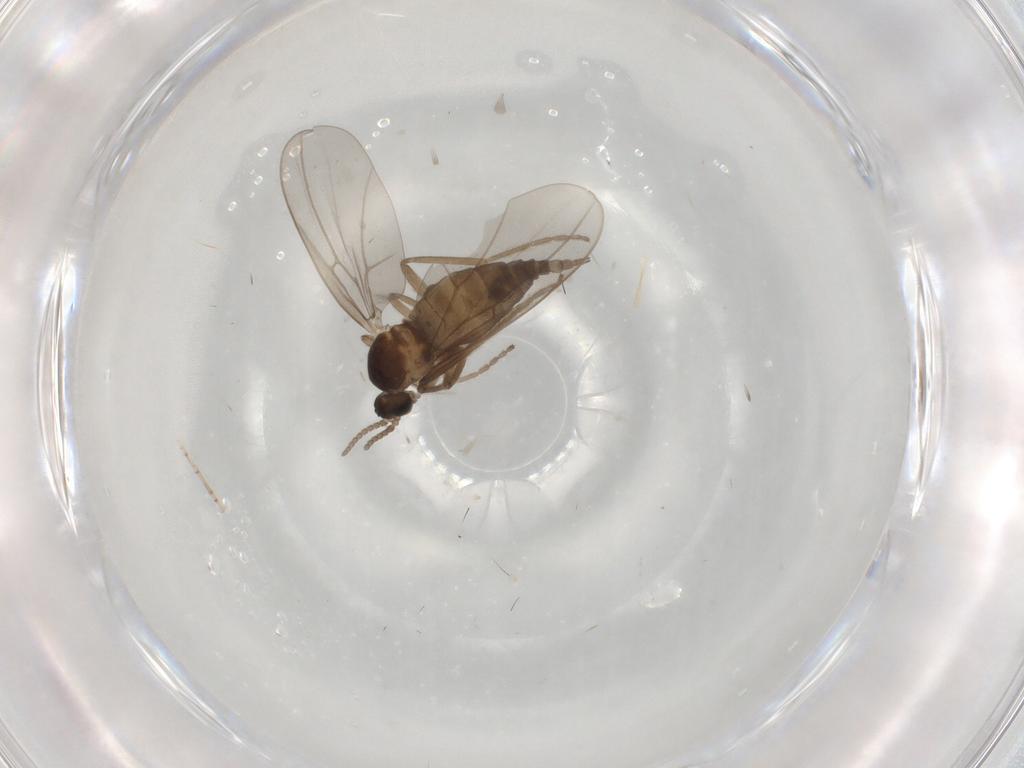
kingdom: Animalia
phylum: Arthropoda
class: Insecta
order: Diptera
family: Cecidomyiidae
